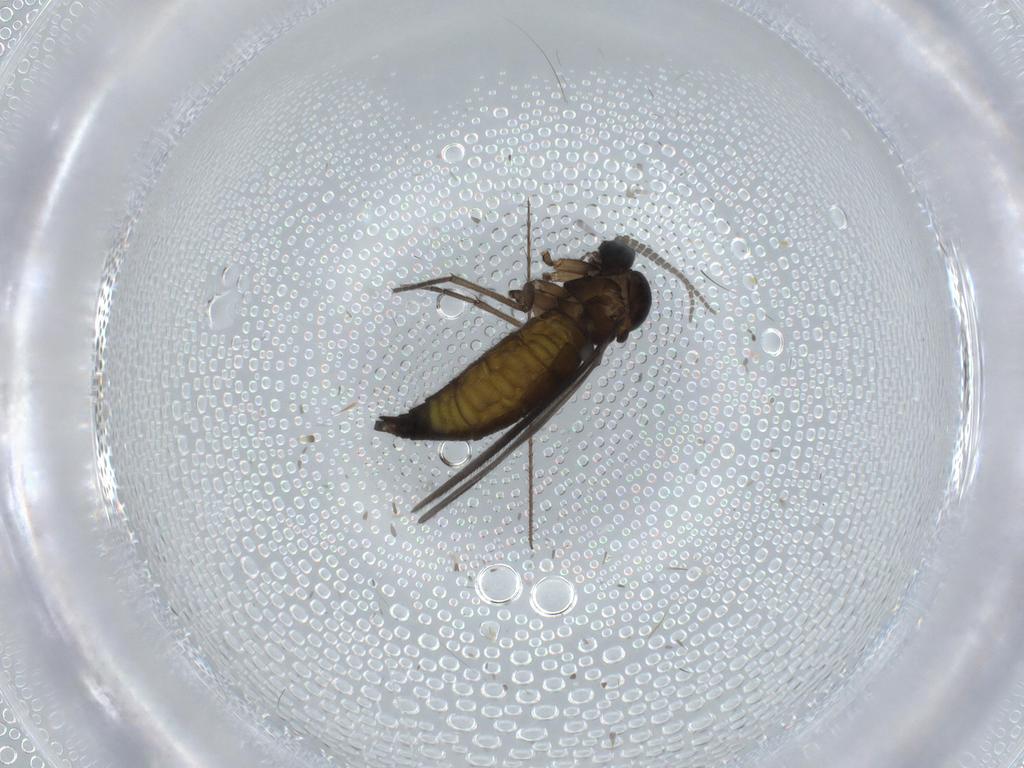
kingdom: Animalia
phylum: Arthropoda
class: Insecta
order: Diptera
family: Sciaridae
